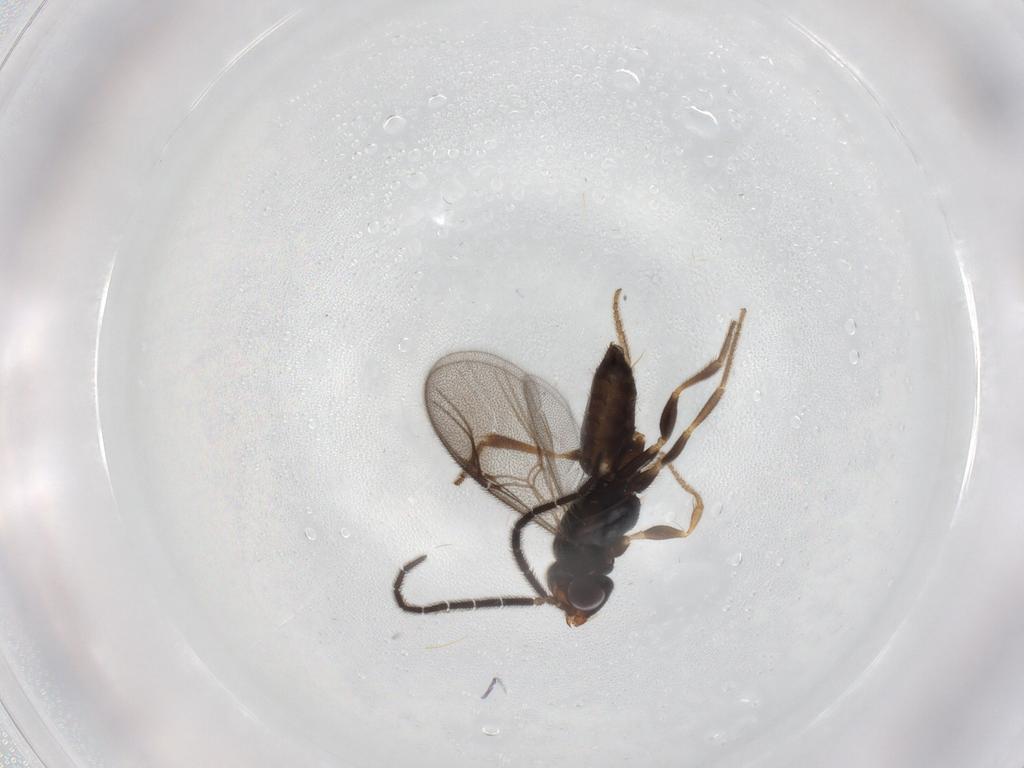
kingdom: Animalia
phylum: Arthropoda
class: Insecta
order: Hymenoptera
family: Dryinidae
